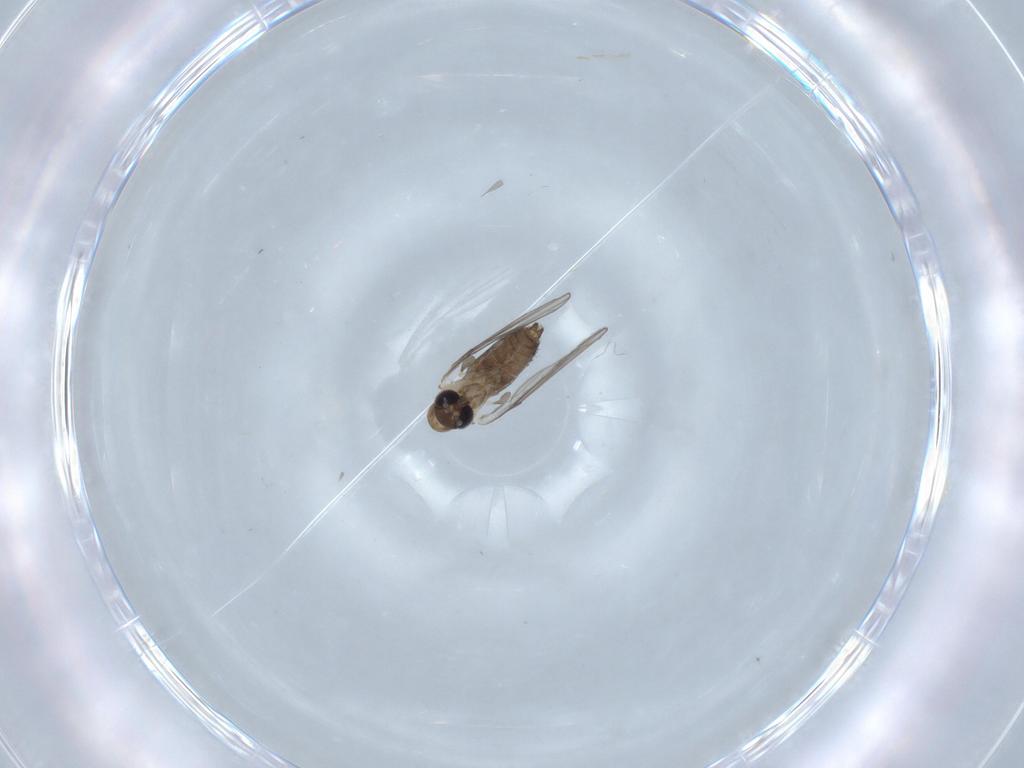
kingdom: Animalia
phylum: Arthropoda
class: Insecta
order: Diptera
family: Psychodidae
